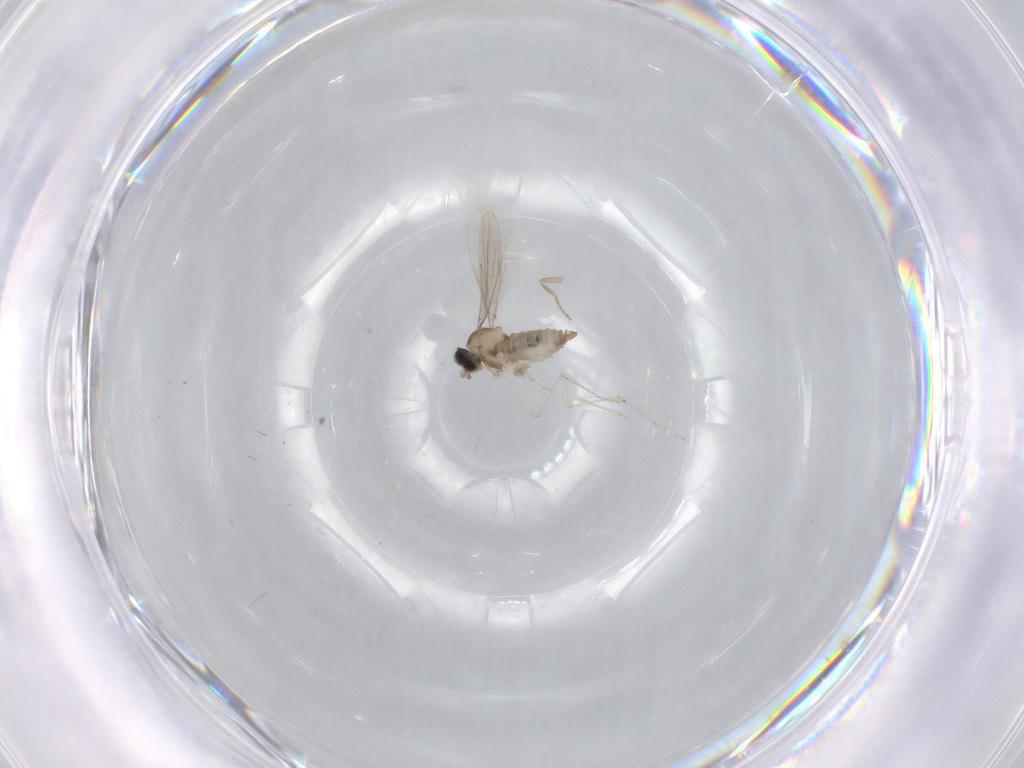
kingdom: Animalia
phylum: Arthropoda
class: Insecta
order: Diptera
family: Cecidomyiidae
